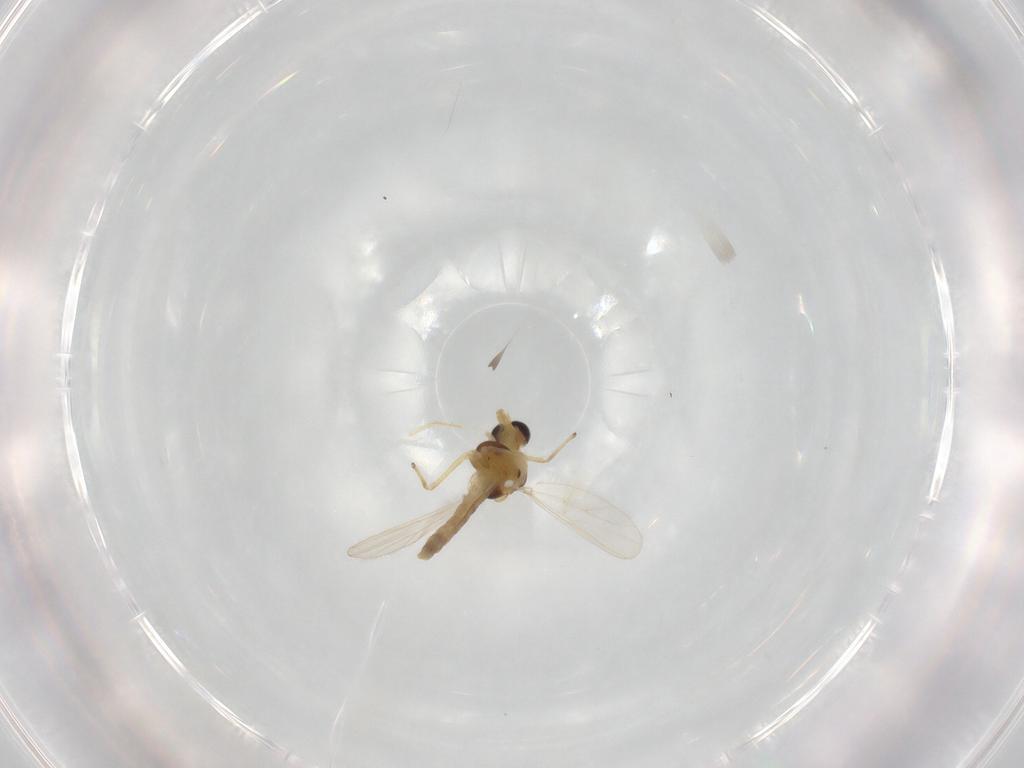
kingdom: Animalia
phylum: Arthropoda
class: Insecta
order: Diptera
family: Chironomidae
